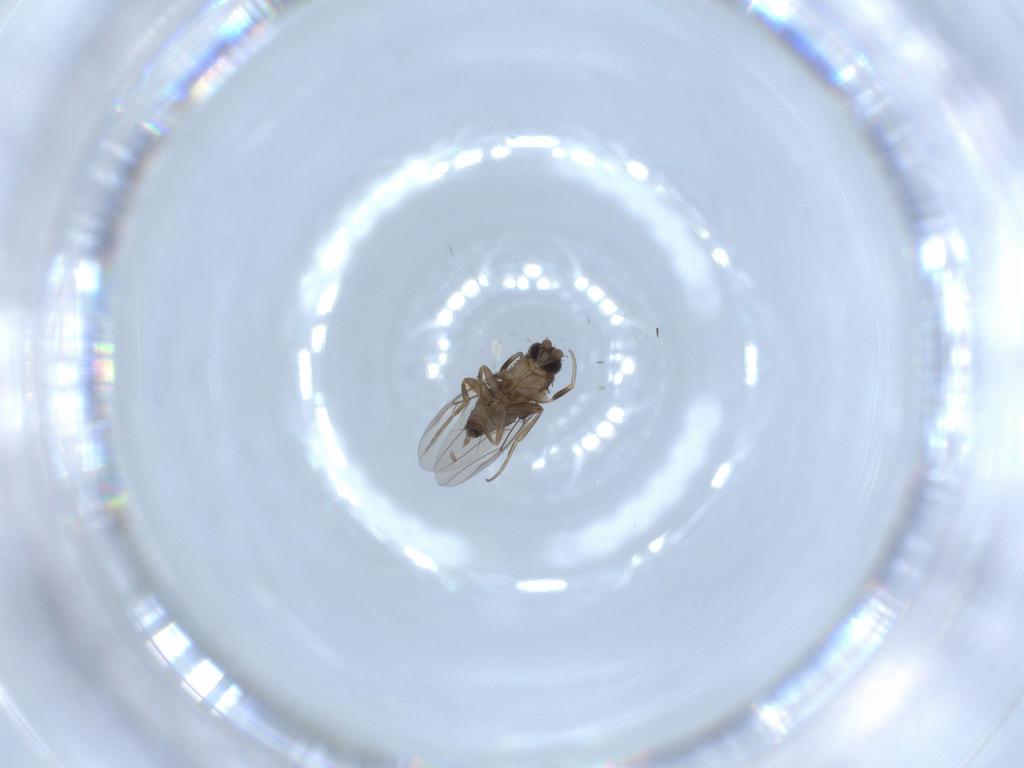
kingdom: Animalia
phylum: Arthropoda
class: Insecta
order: Diptera
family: Phoridae
